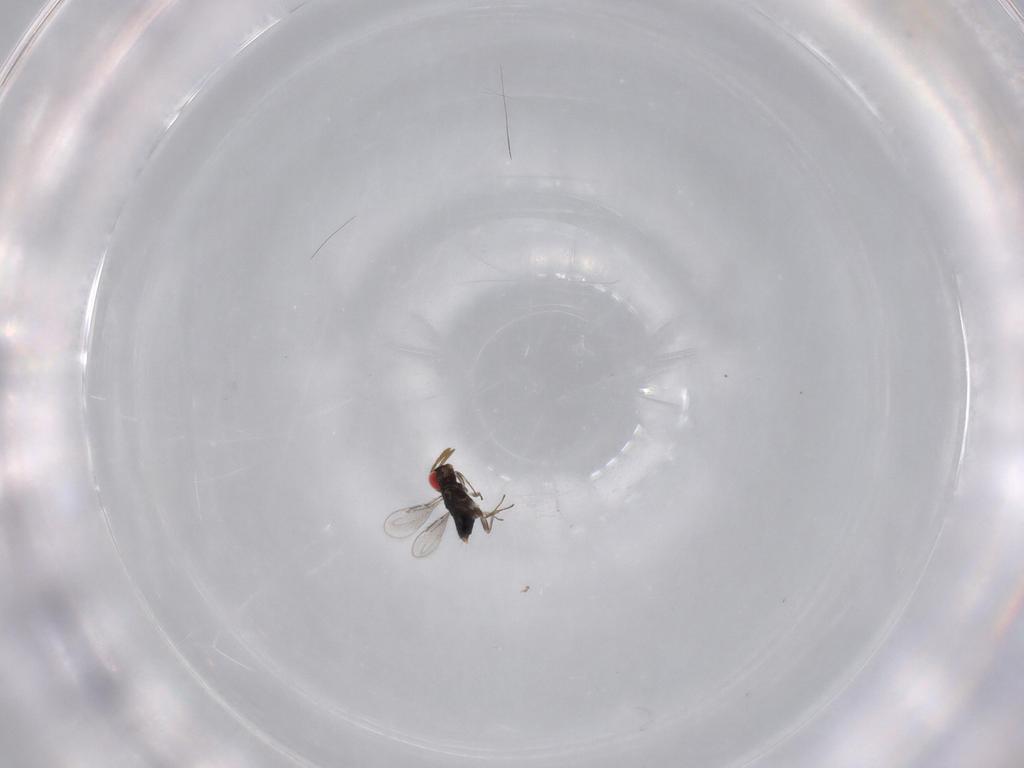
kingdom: Animalia
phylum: Arthropoda
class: Insecta
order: Hymenoptera
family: Azotidae
